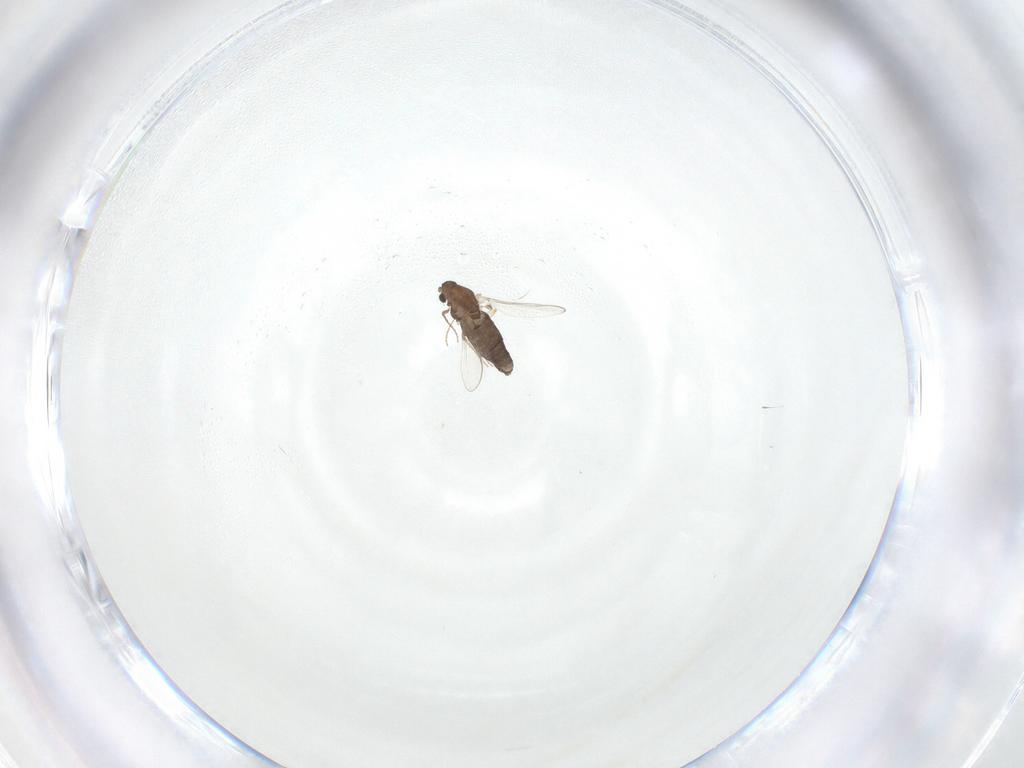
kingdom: Animalia
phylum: Arthropoda
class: Insecta
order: Diptera
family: Chironomidae
